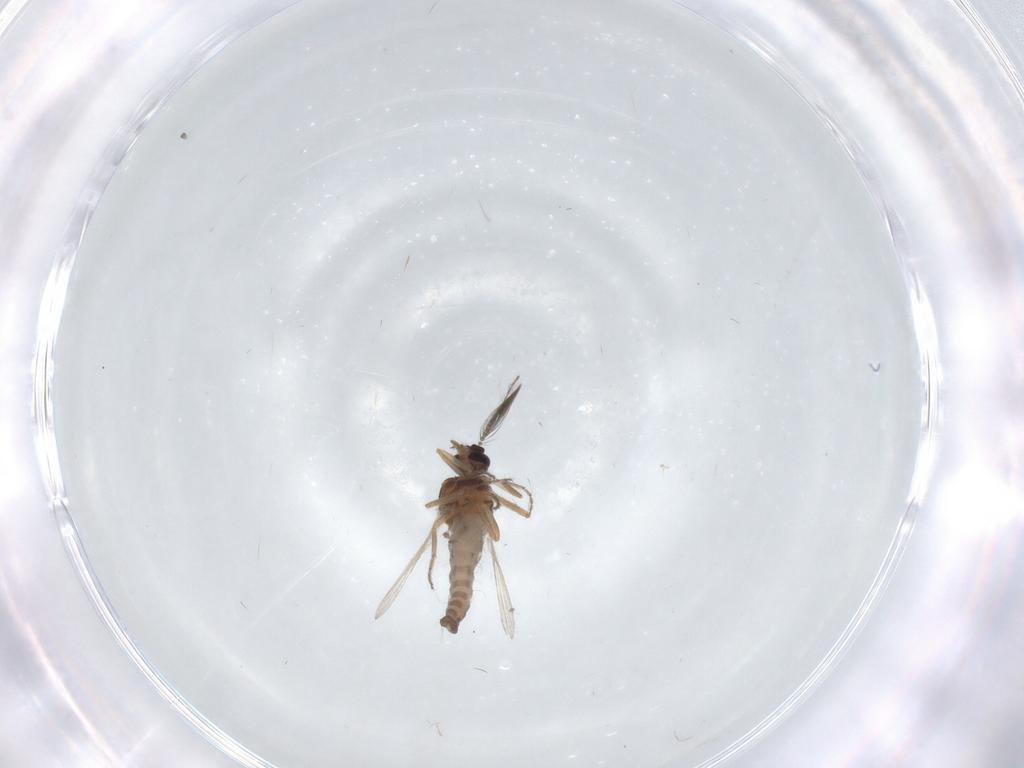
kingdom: Animalia
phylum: Arthropoda
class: Insecta
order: Diptera
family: Ceratopogonidae
